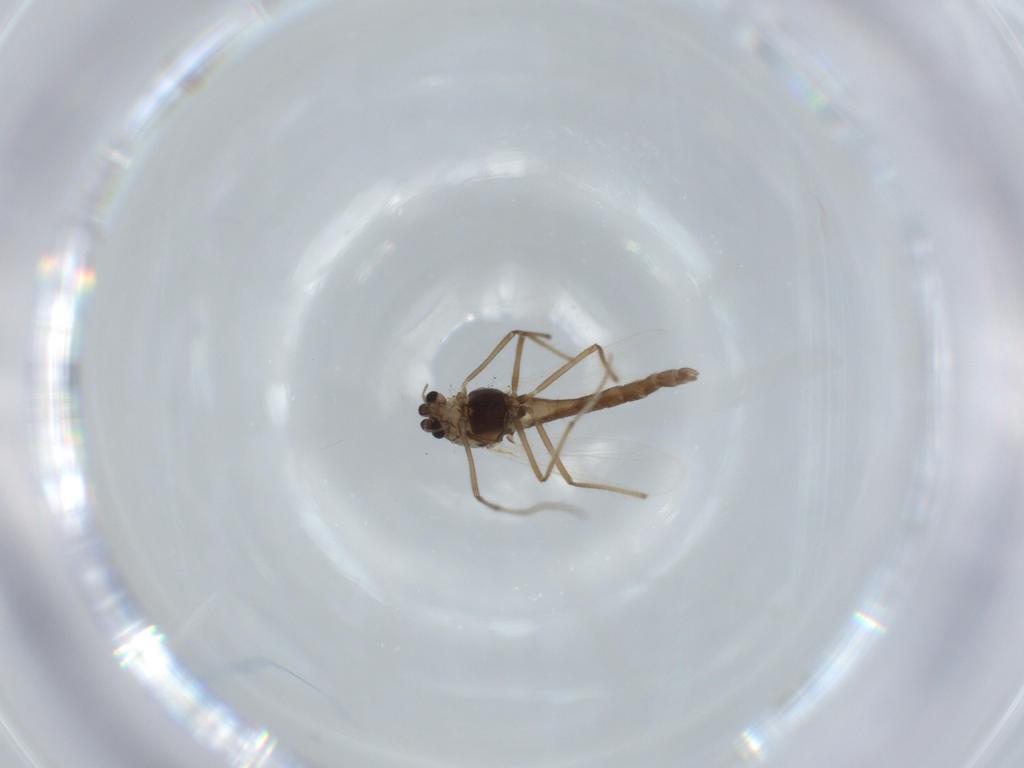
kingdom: Animalia
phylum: Arthropoda
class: Insecta
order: Diptera
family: Chironomidae
